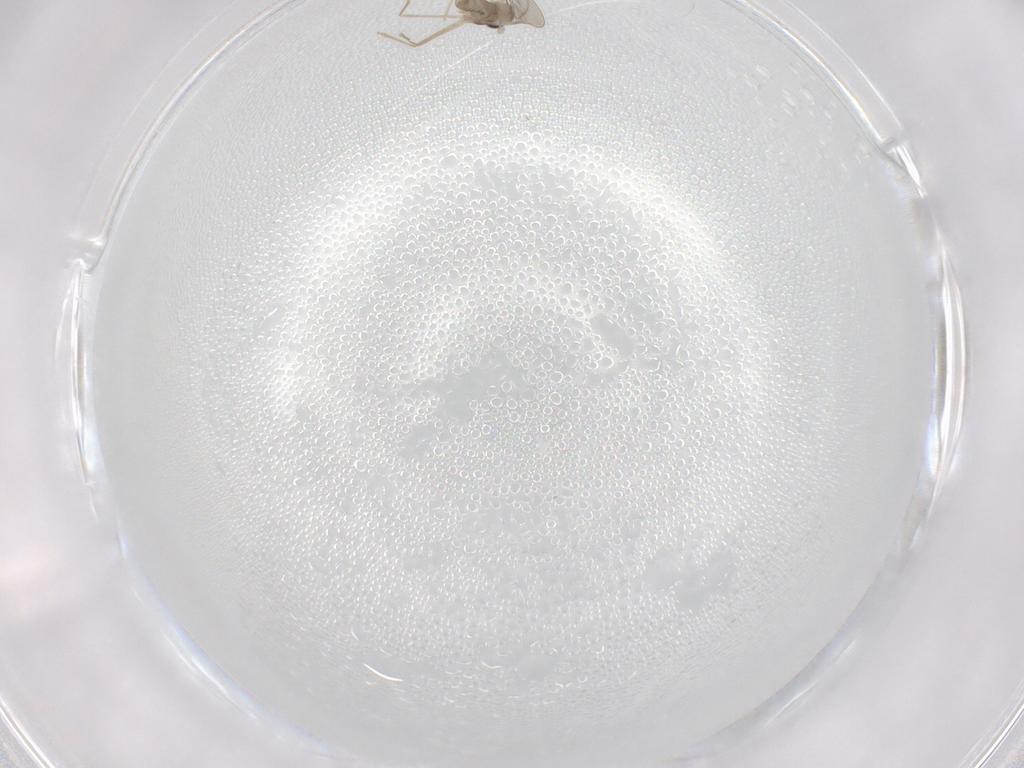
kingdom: Animalia
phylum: Arthropoda
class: Insecta
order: Diptera
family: Cecidomyiidae
